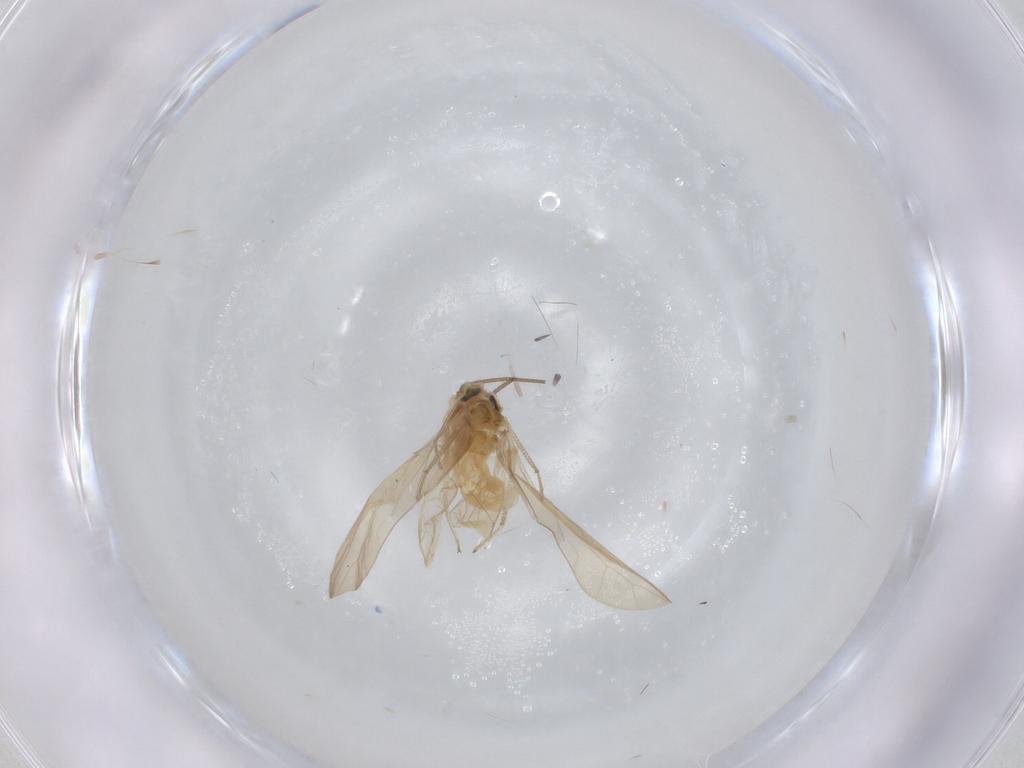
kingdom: Animalia
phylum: Arthropoda
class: Insecta
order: Psocodea
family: Stenopsocidae
